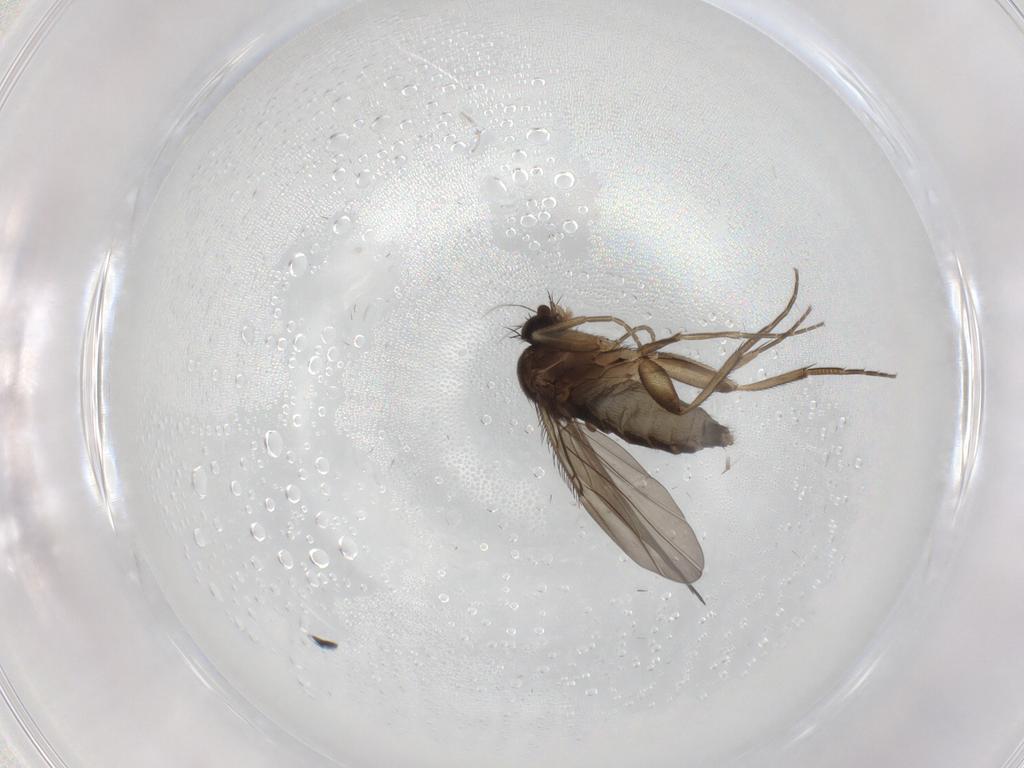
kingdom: Animalia
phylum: Arthropoda
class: Insecta
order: Diptera
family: Phoridae
